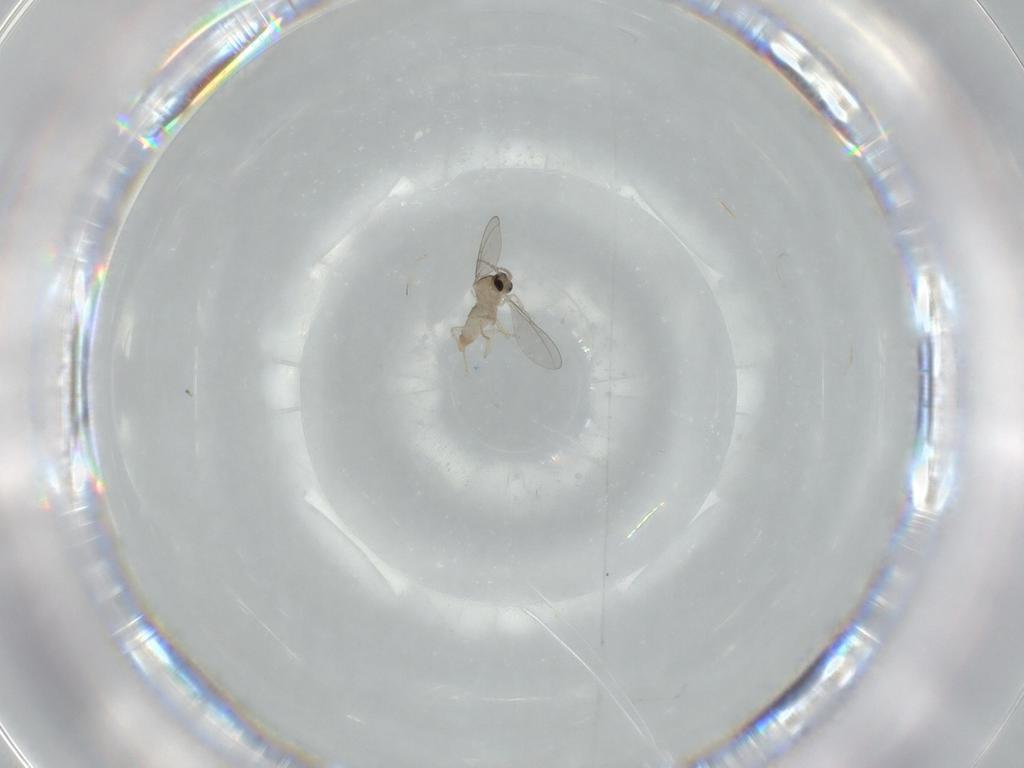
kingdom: Animalia
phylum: Arthropoda
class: Insecta
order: Diptera
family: Cecidomyiidae
